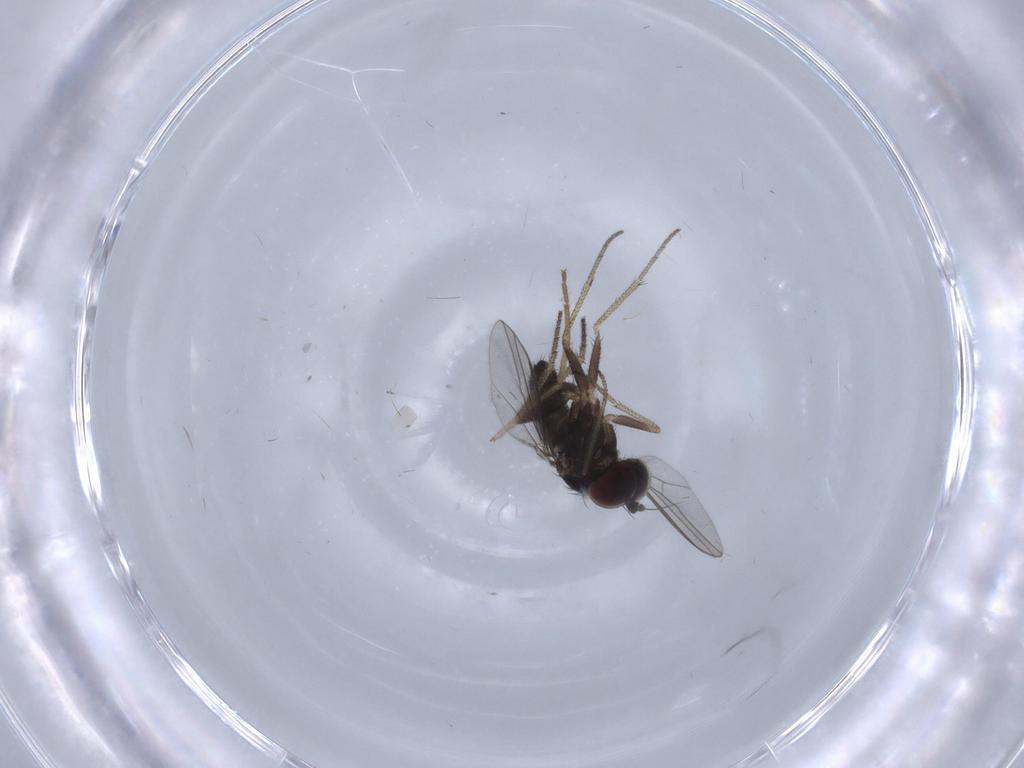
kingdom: Animalia
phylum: Arthropoda
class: Insecta
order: Diptera
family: Chironomidae
